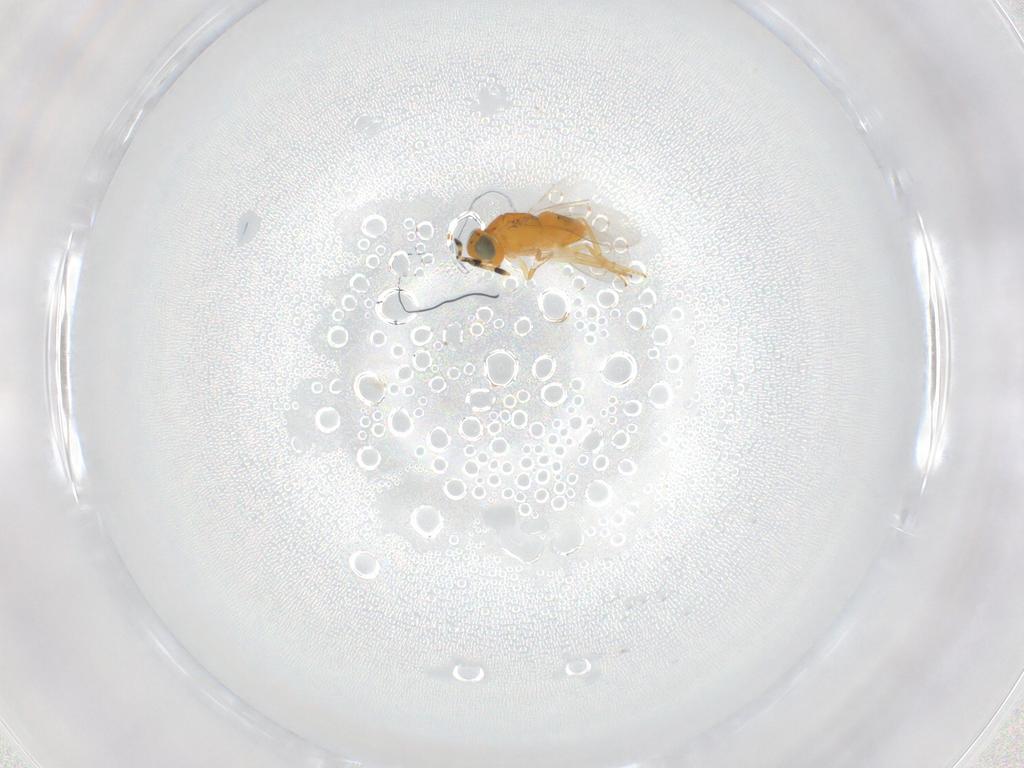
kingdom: Animalia
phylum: Arthropoda
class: Insecta
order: Hymenoptera
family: Encyrtidae
